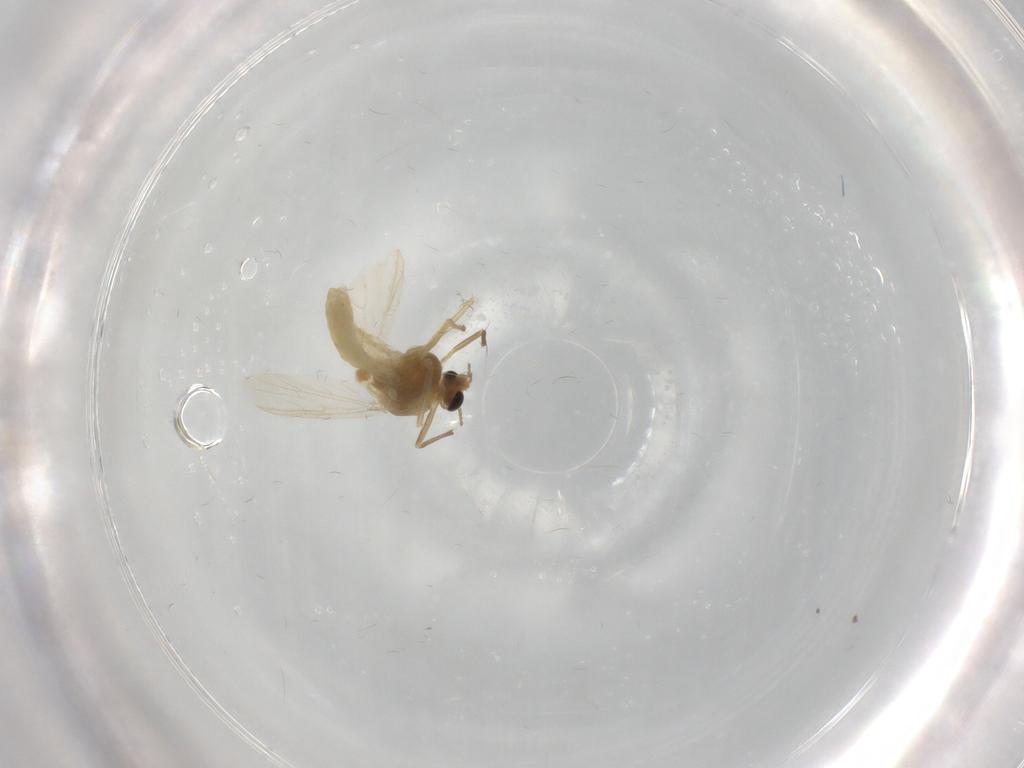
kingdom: Animalia
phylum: Arthropoda
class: Insecta
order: Diptera
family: Chironomidae
